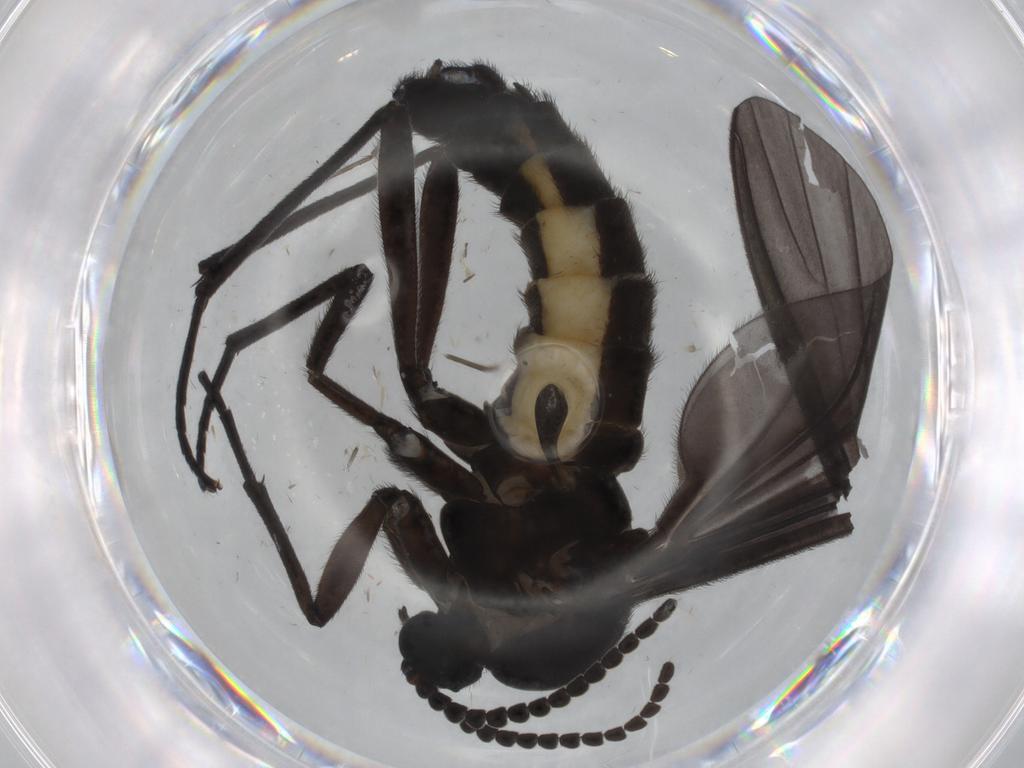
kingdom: Animalia
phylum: Arthropoda
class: Insecta
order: Diptera
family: Sciaridae
